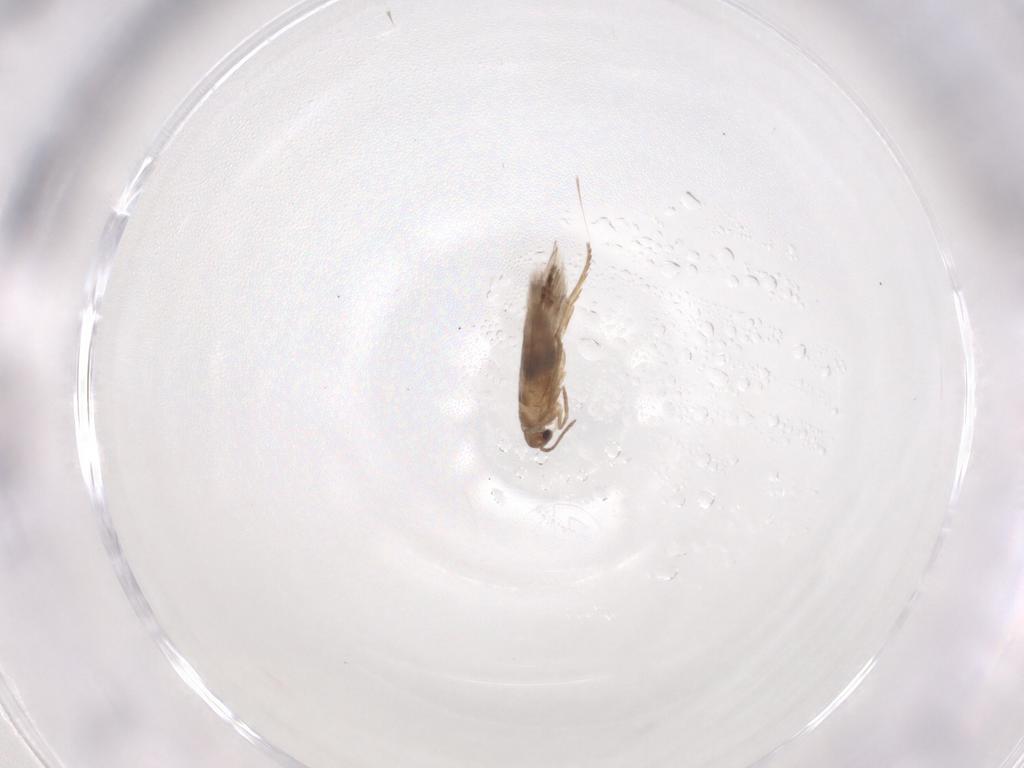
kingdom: Animalia
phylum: Arthropoda
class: Insecta
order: Lepidoptera
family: Heliozelidae
